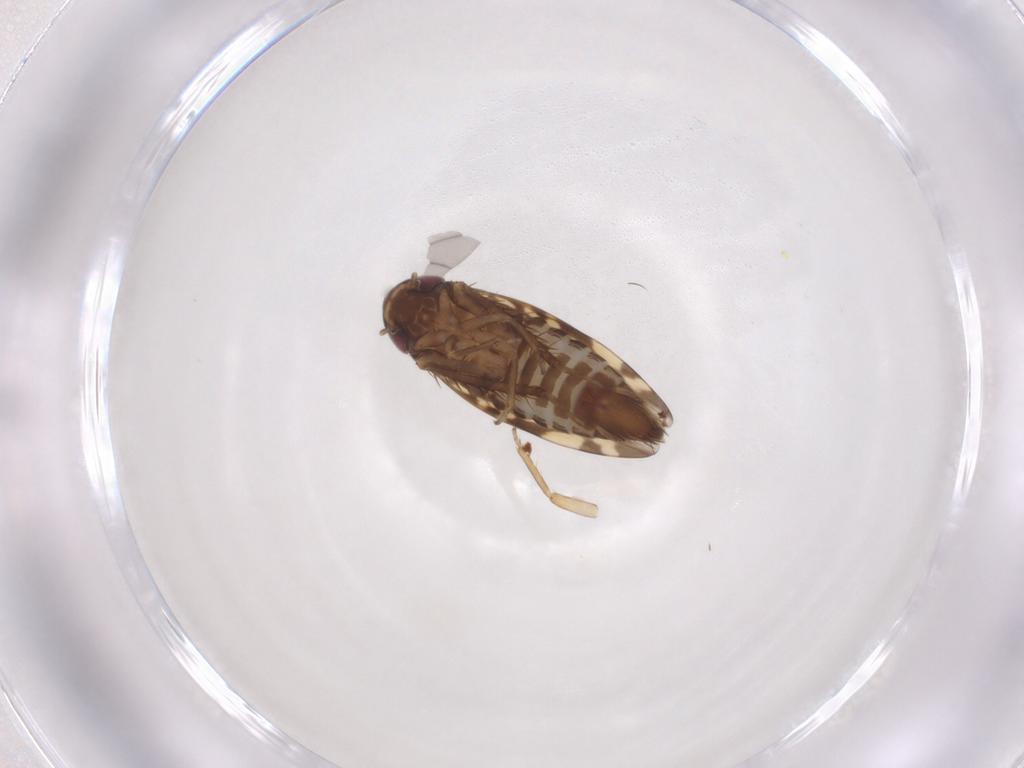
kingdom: Animalia
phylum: Arthropoda
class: Insecta
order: Hemiptera
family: Cicadellidae
